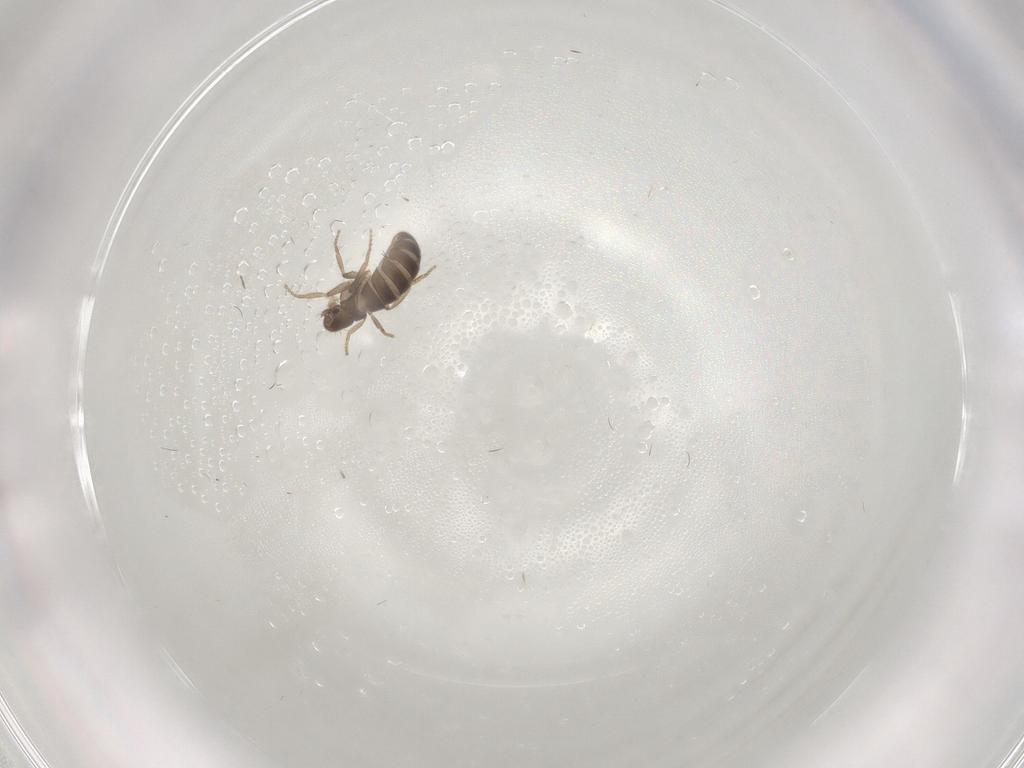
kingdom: Animalia
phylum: Arthropoda
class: Insecta
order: Diptera
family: Chironomidae
